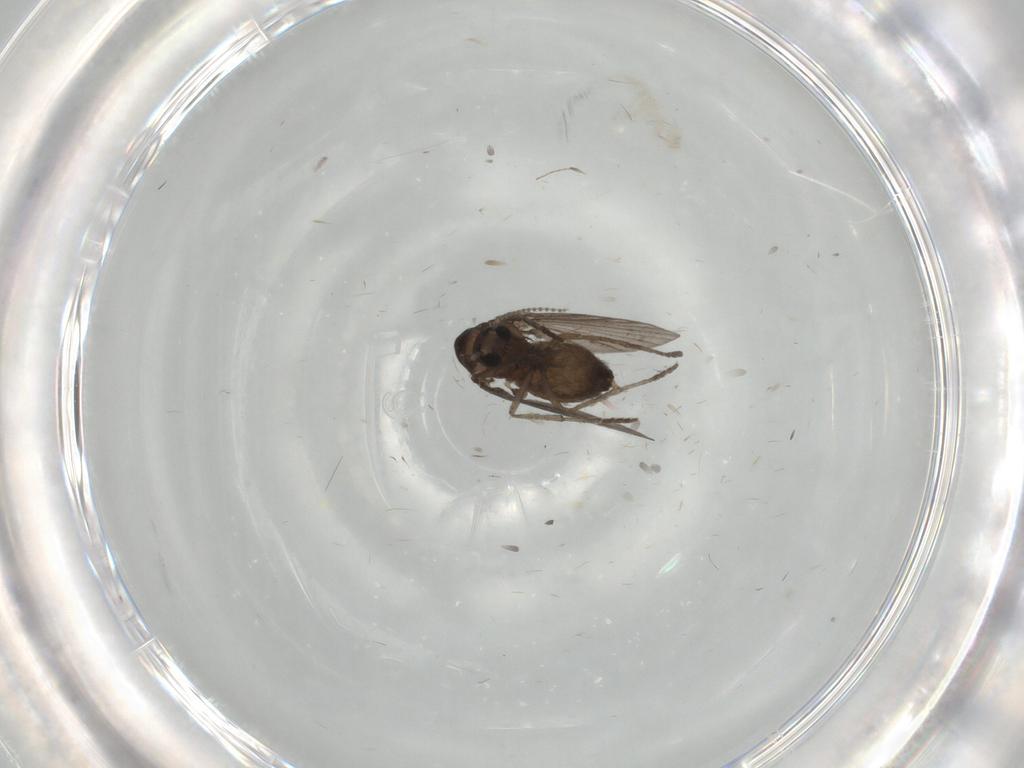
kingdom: Animalia
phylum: Arthropoda
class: Insecta
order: Diptera
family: Psychodidae
